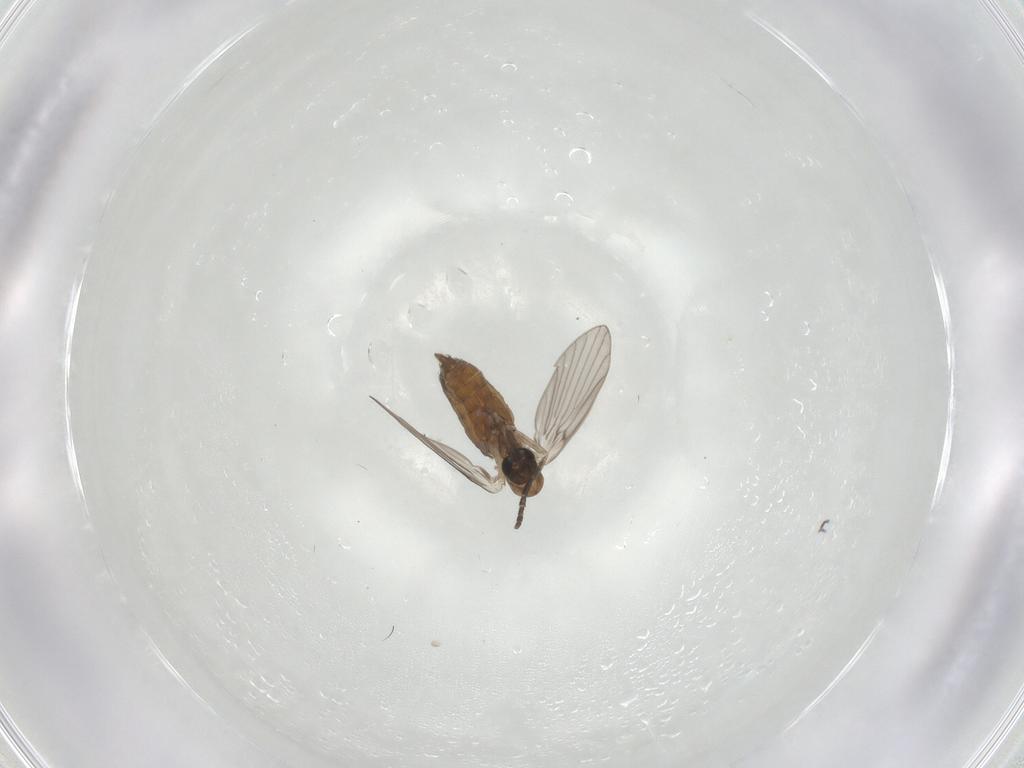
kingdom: Animalia
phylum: Arthropoda
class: Insecta
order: Diptera
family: Psychodidae
